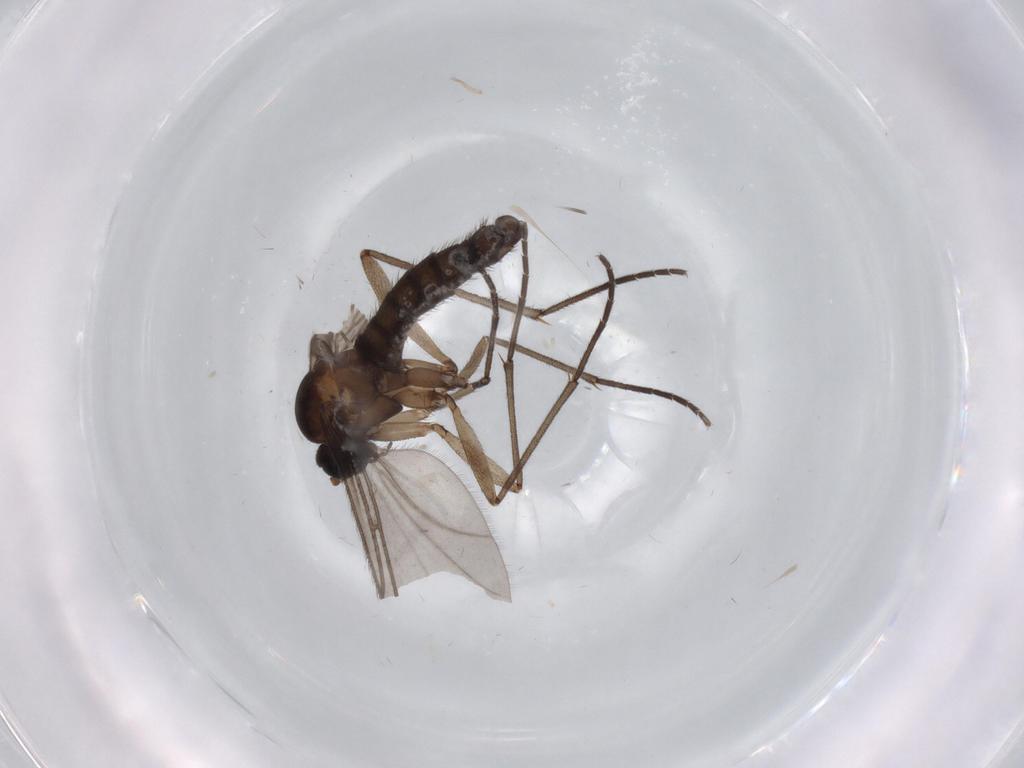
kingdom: Animalia
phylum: Arthropoda
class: Insecta
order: Diptera
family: Sciaridae
